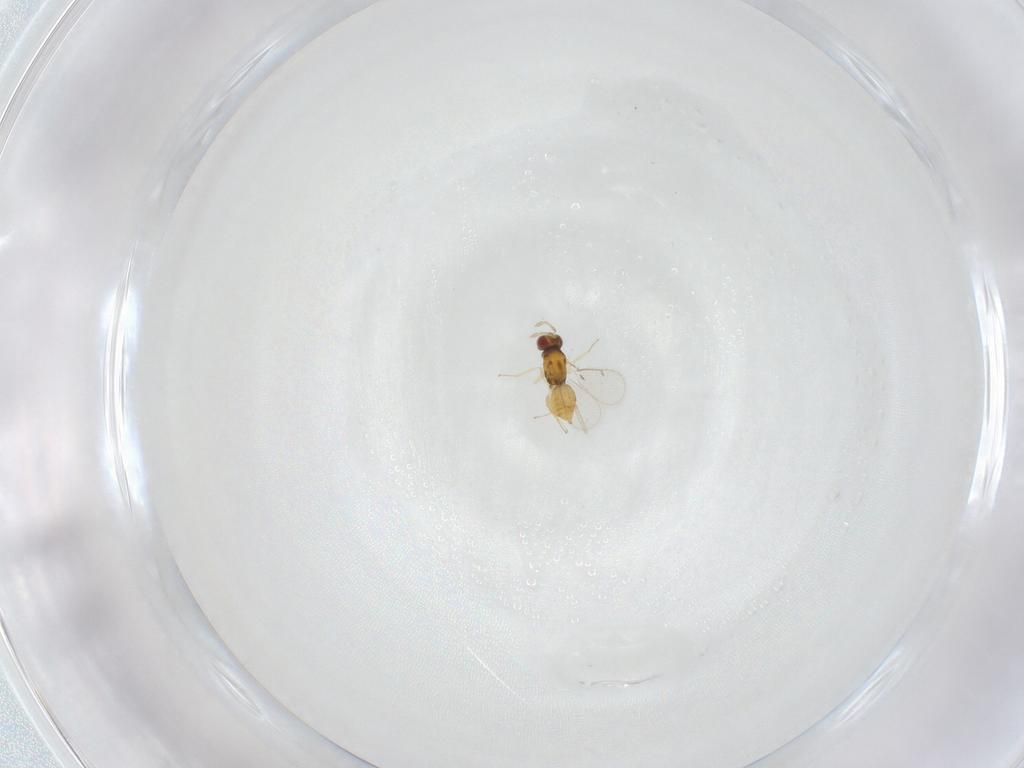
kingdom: Animalia
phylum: Arthropoda
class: Insecta
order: Hymenoptera
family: Eulophidae
